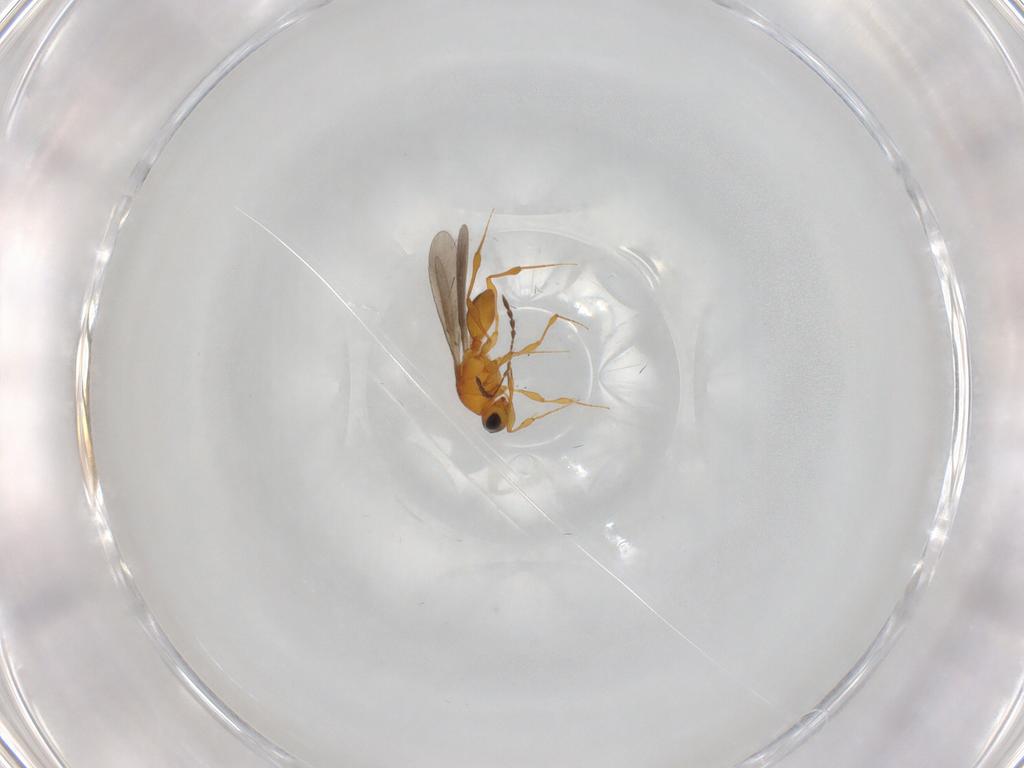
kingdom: Animalia
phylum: Arthropoda
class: Insecta
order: Hymenoptera
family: Platygastridae
